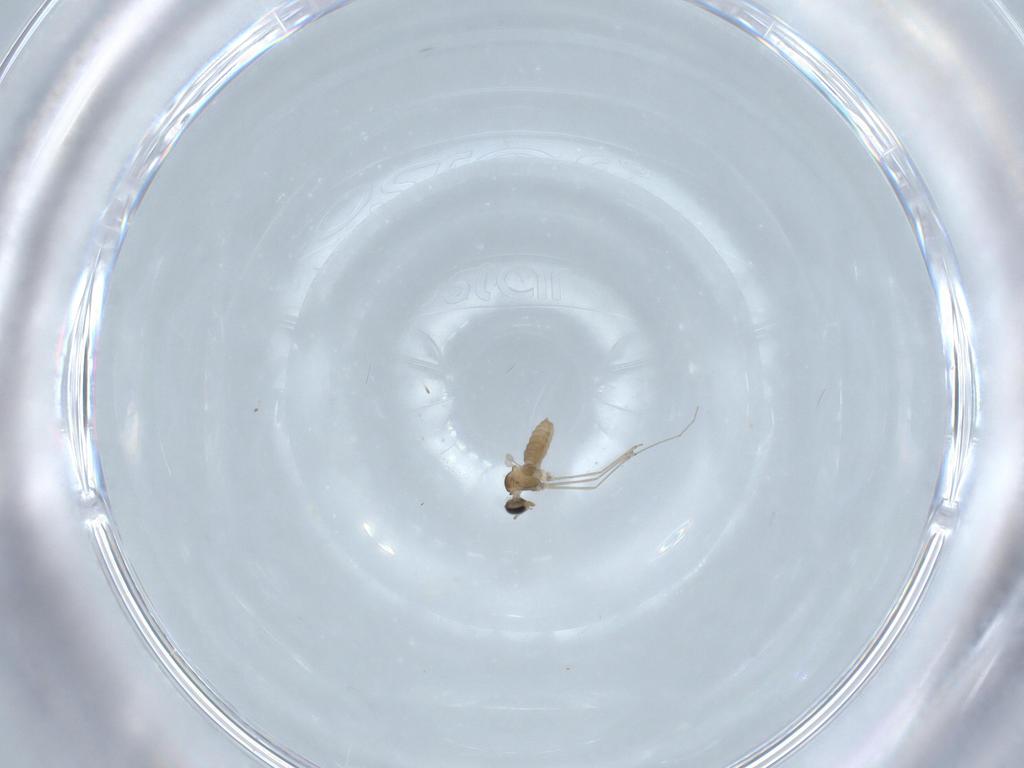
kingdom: Animalia
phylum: Arthropoda
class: Insecta
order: Diptera
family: Cecidomyiidae
